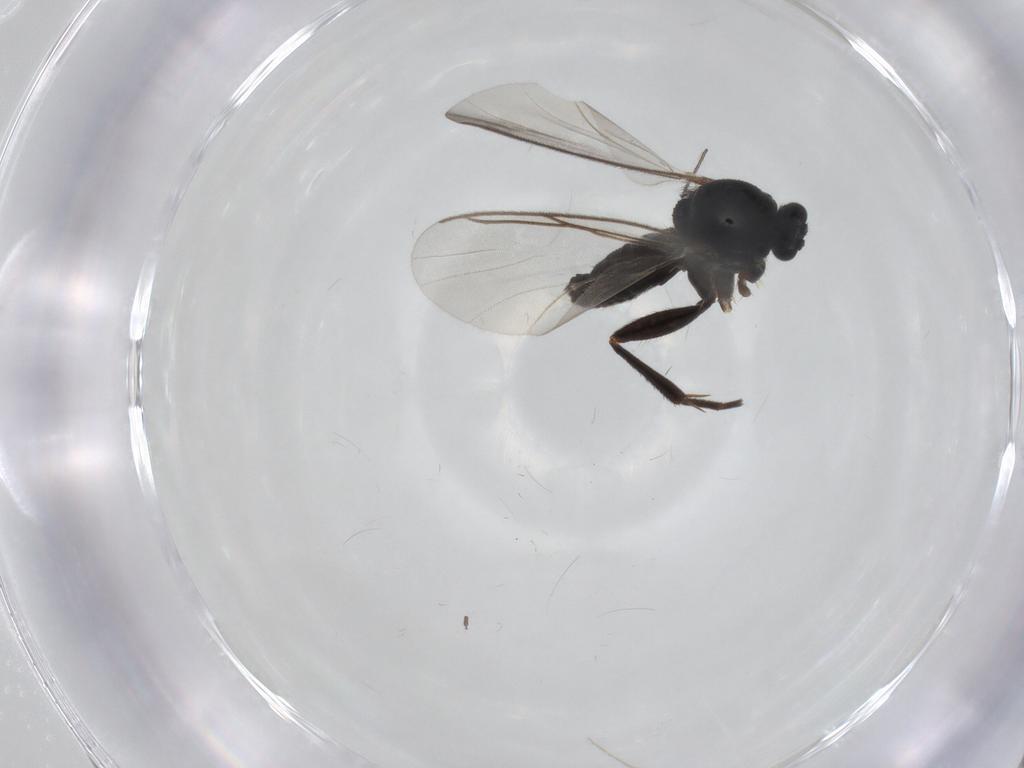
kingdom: Animalia
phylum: Arthropoda
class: Insecta
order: Diptera
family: Mycetophilidae
